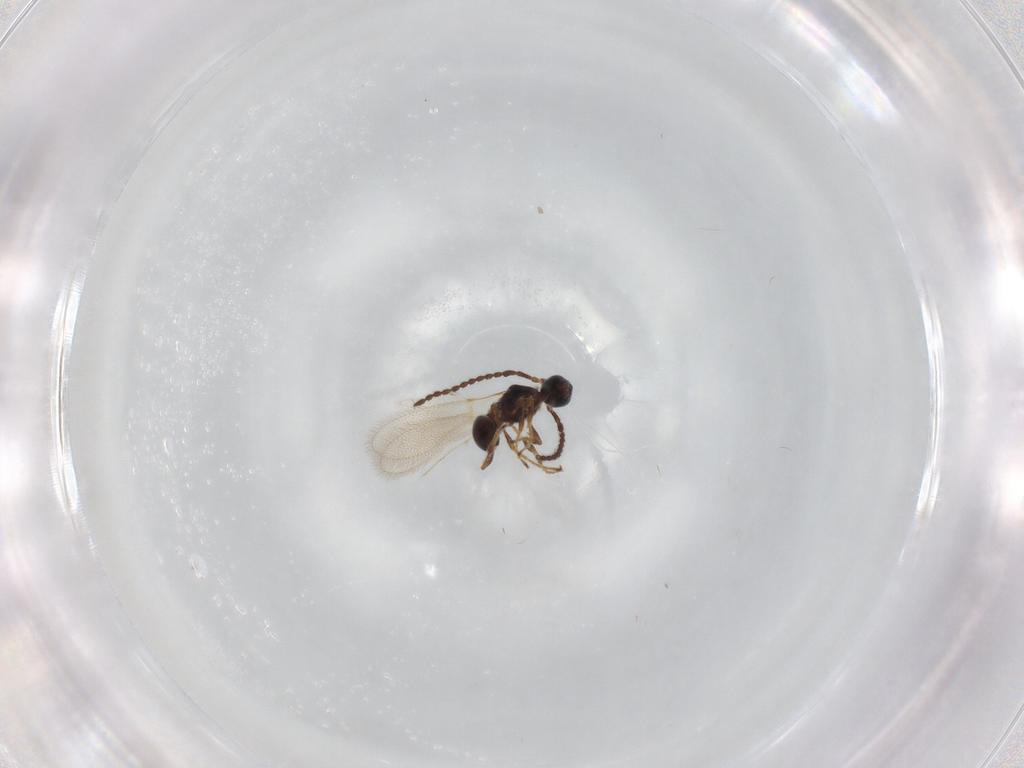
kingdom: Animalia
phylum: Arthropoda
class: Insecta
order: Hymenoptera
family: Diapriidae
